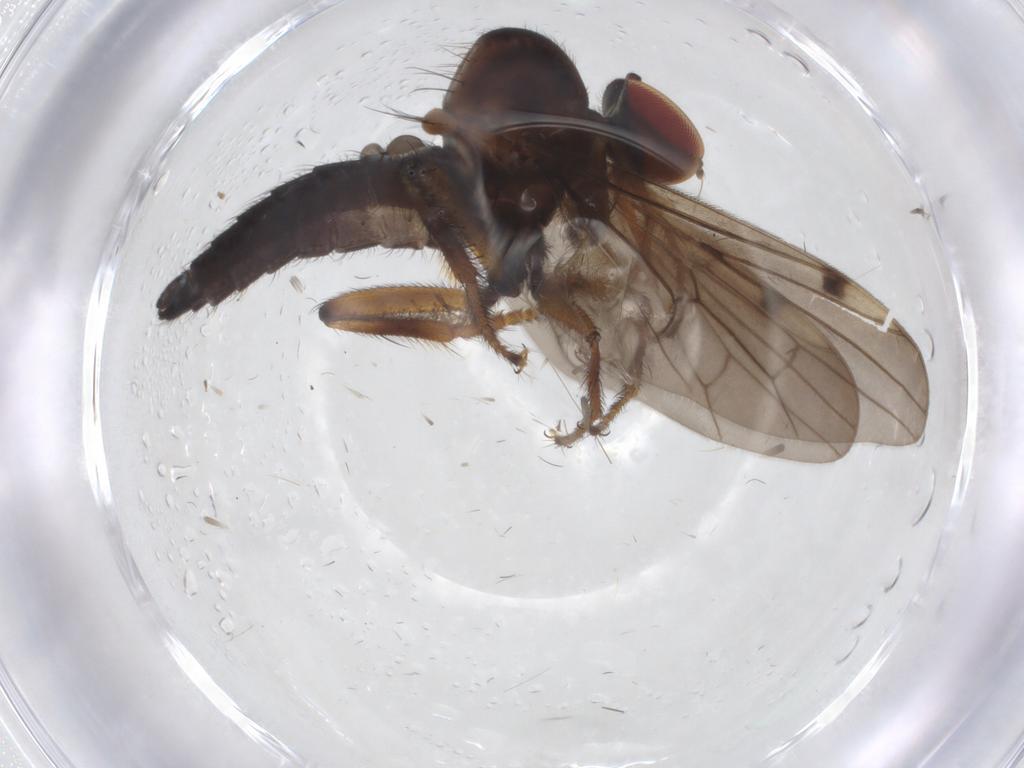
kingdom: Animalia
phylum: Arthropoda
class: Insecta
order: Diptera
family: Hybotidae
